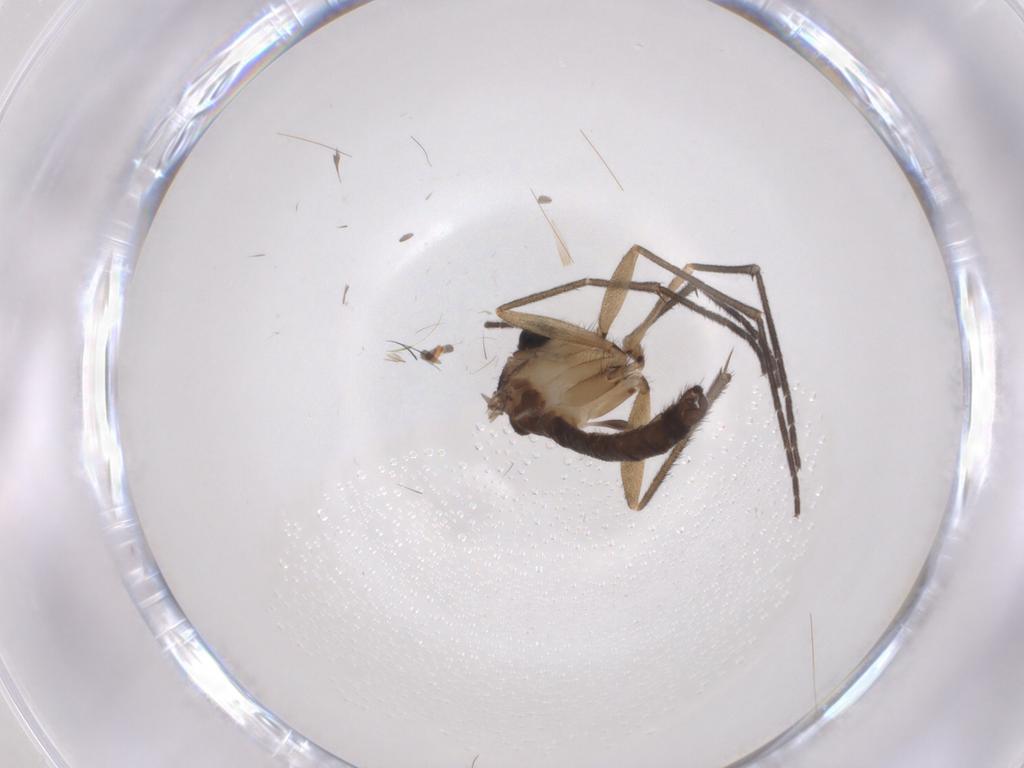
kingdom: Animalia
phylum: Arthropoda
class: Insecta
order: Diptera
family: Sciaridae
